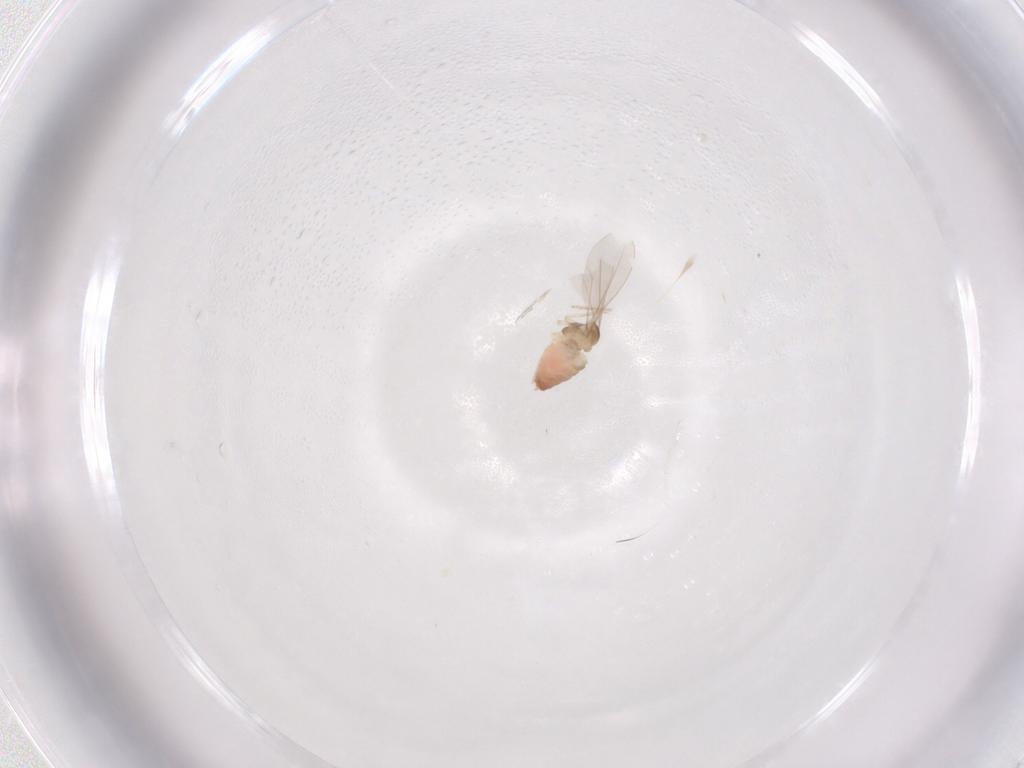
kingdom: Animalia
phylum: Arthropoda
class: Insecta
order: Diptera
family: Cecidomyiidae
